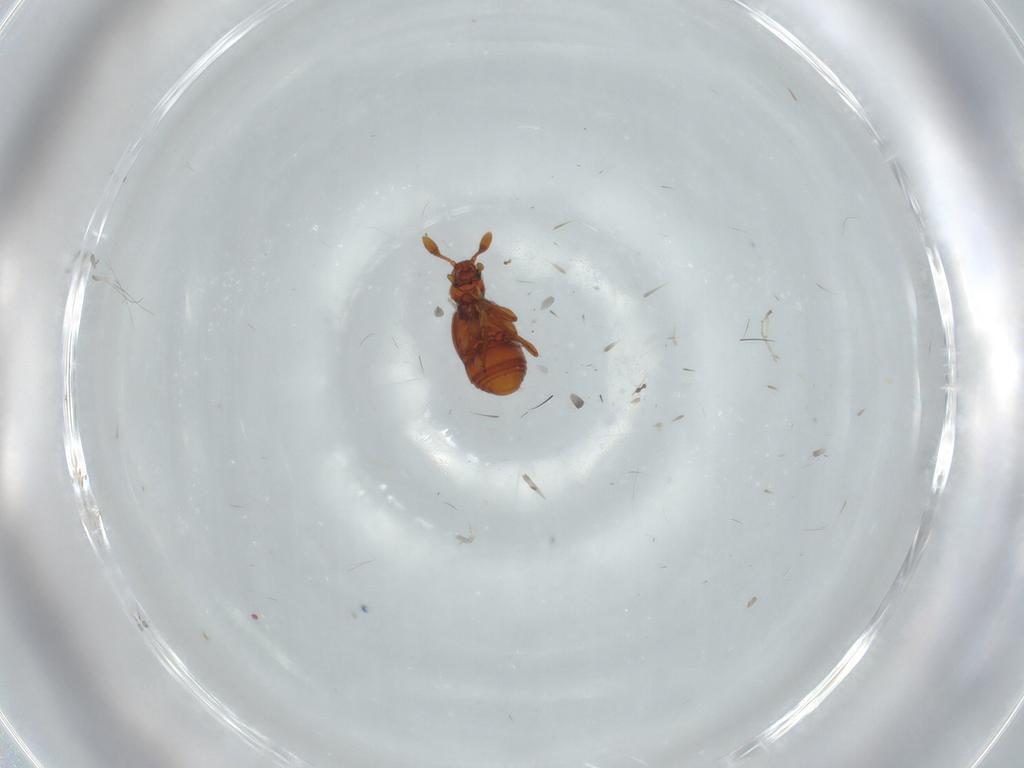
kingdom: Animalia
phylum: Arthropoda
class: Insecta
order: Coleoptera
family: Staphylinidae
